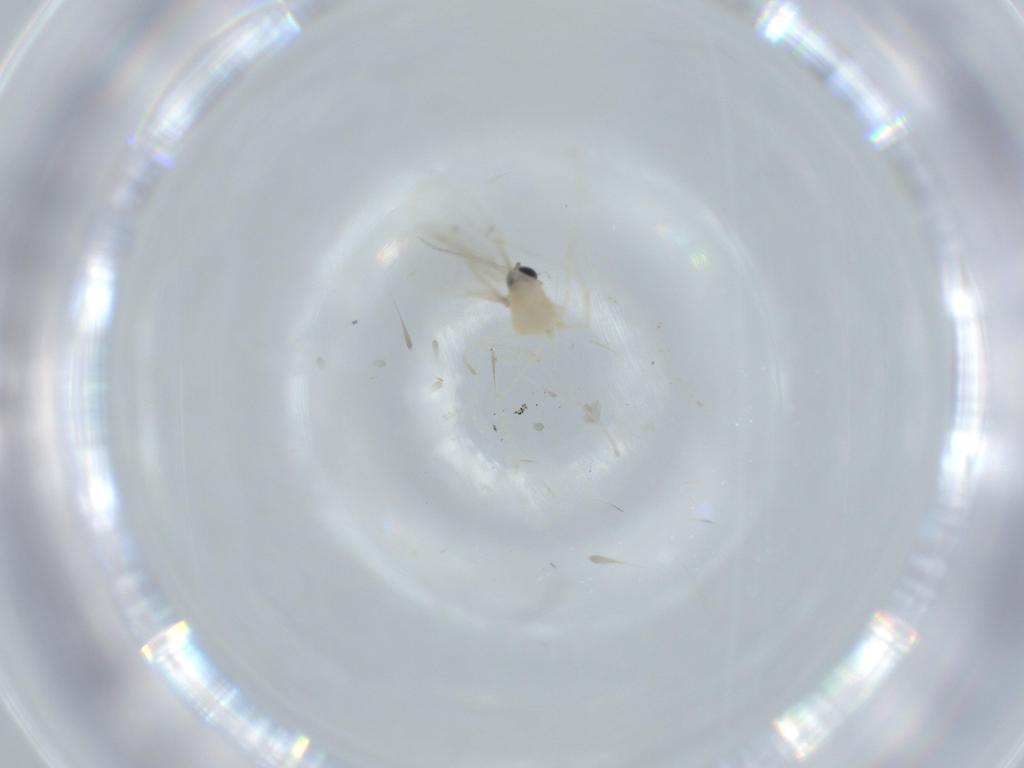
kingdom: Animalia
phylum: Arthropoda
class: Insecta
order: Diptera
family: Cecidomyiidae
